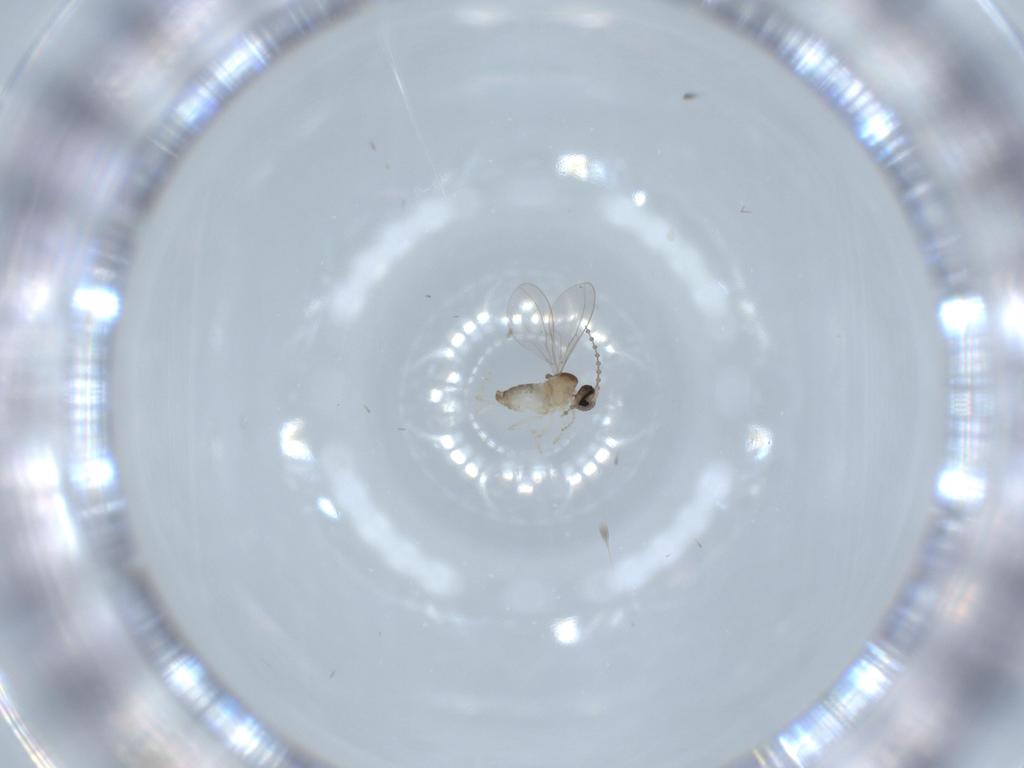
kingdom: Animalia
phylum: Arthropoda
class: Insecta
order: Diptera
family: Cecidomyiidae
